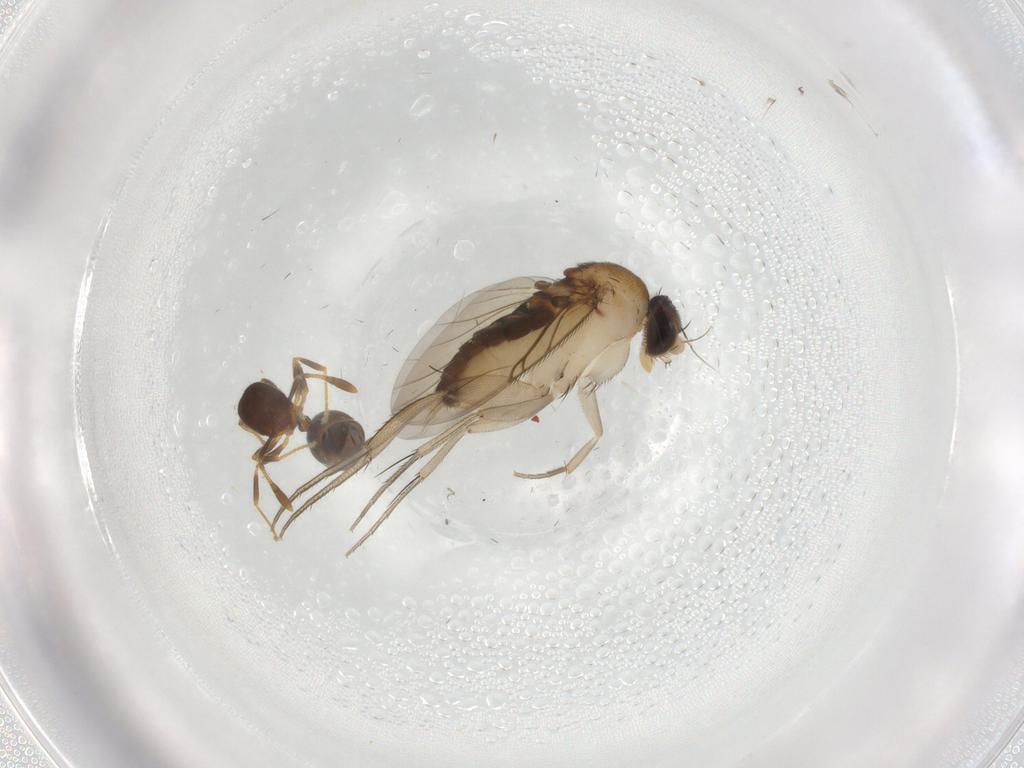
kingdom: Animalia
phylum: Arthropoda
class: Insecta
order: Diptera
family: Phoridae
